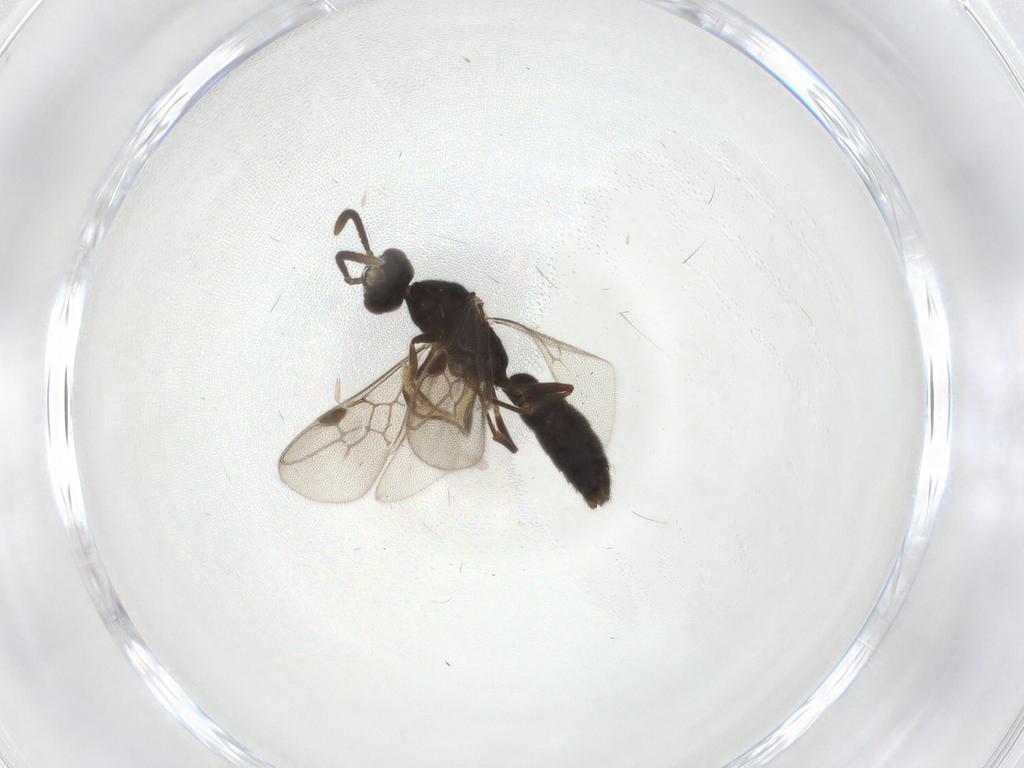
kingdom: Animalia
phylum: Arthropoda
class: Insecta
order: Hymenoptera
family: Formicidae
